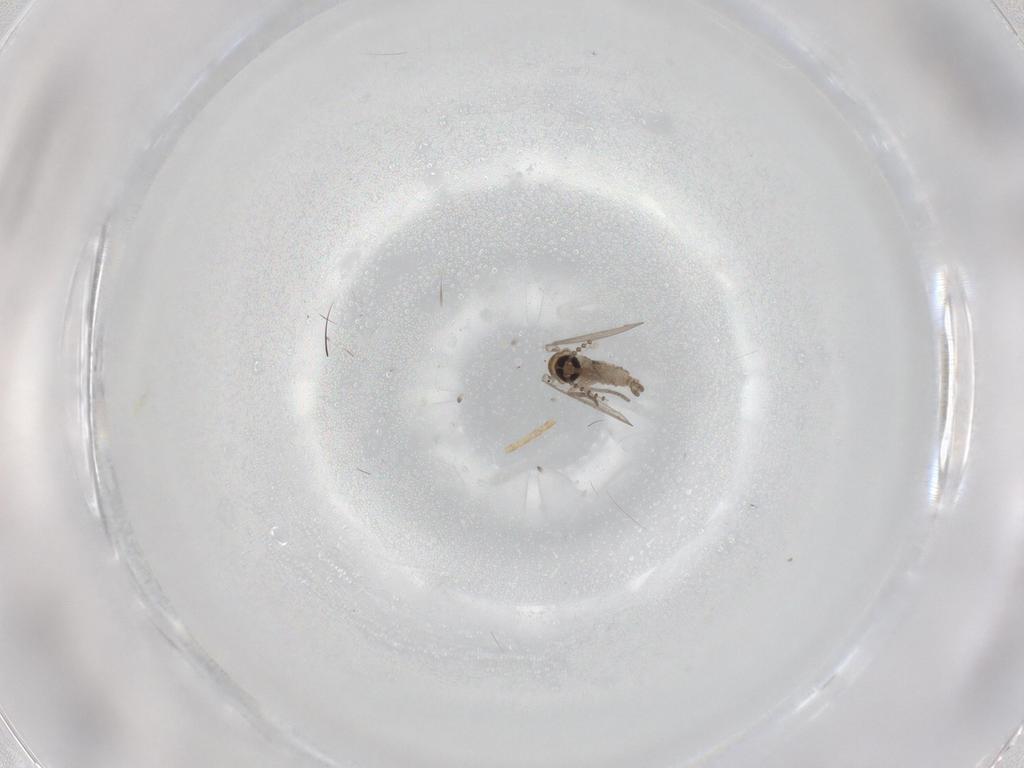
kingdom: Animalia
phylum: Arthropoda
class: Insecta
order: Diptera
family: Psychodidae
